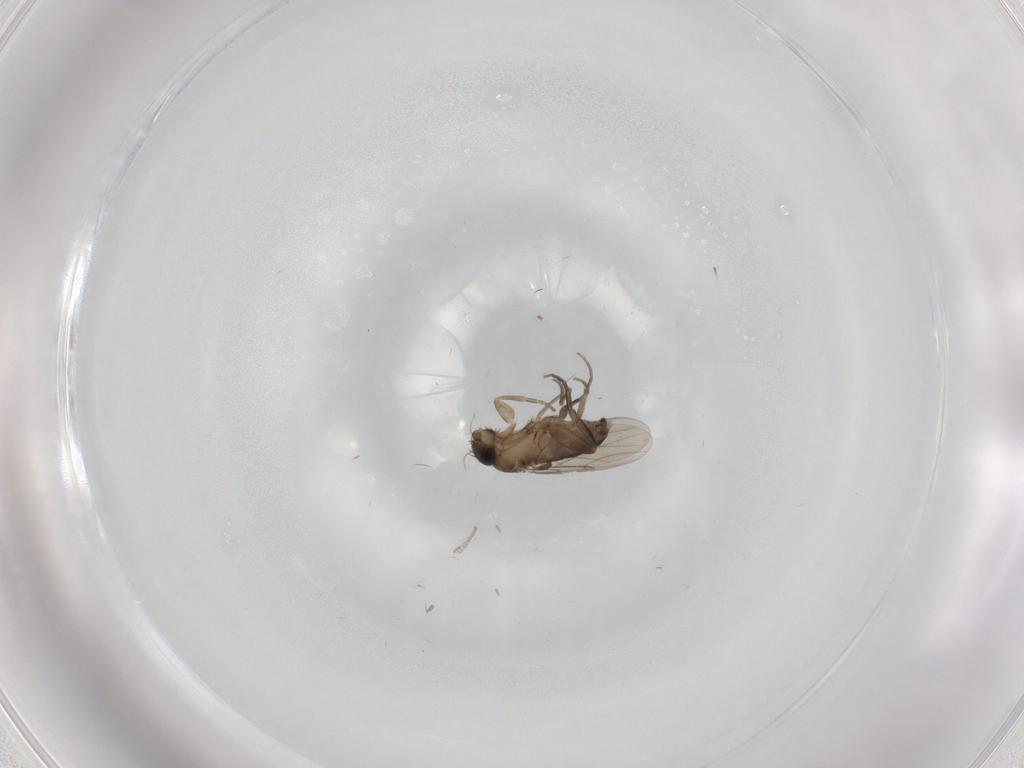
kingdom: Animalia
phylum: Arthropoda
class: Insecta
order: Diptera
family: Phoridae
